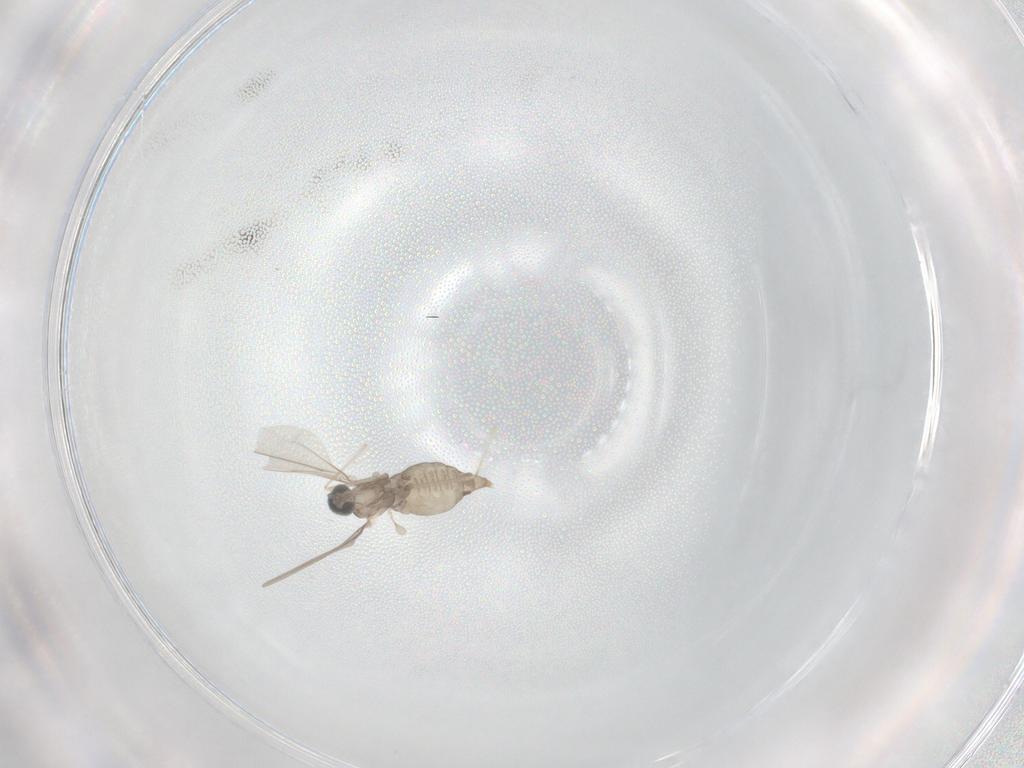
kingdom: Animalia
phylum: Arthropoda
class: Insecta
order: Diptera
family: Cecidomyiidae
